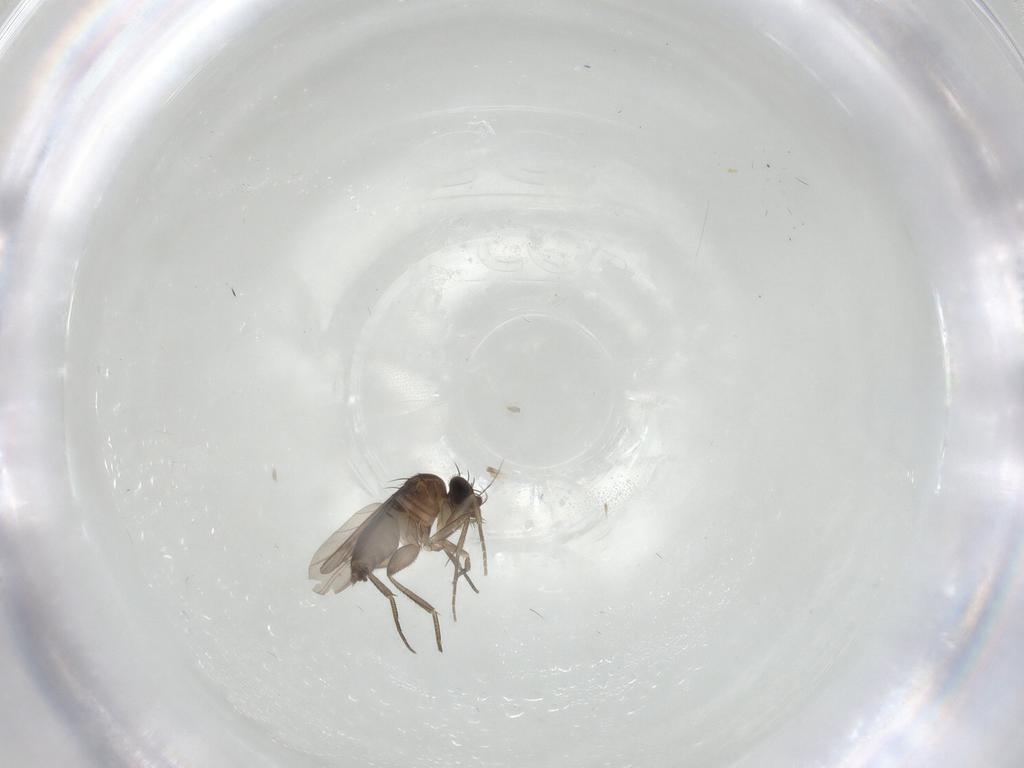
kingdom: Animalia
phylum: Arthropoda
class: Insecta
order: Diptera
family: Phoridae
